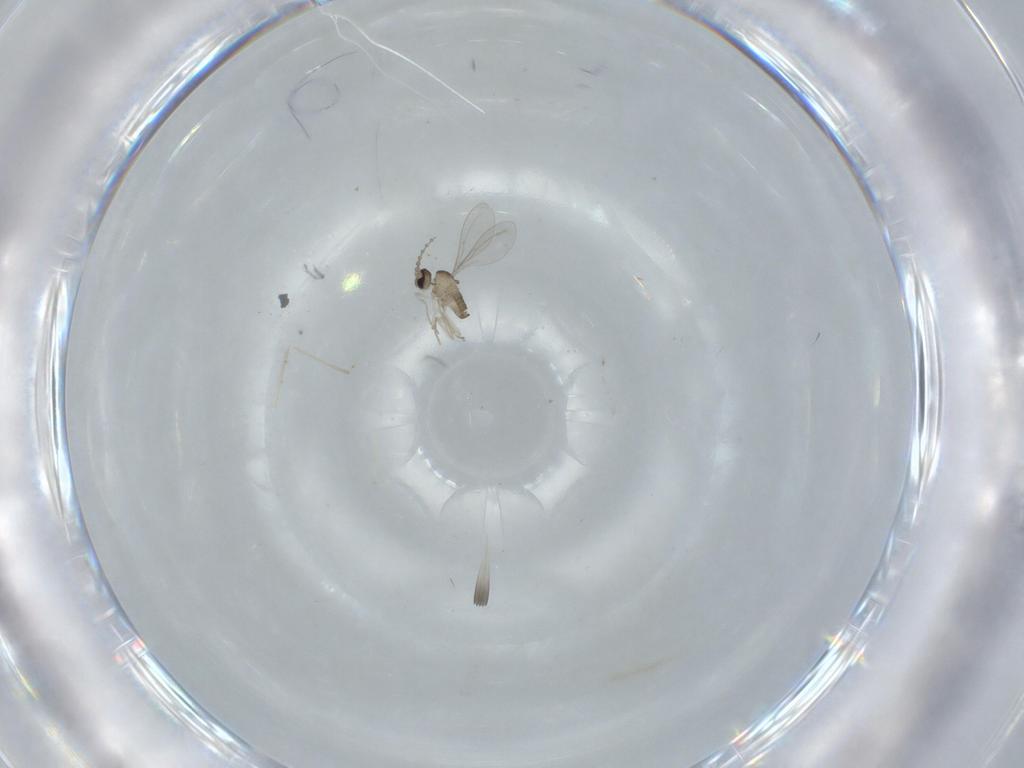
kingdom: Animalia
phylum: Arthropoda
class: Insecta
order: Diptera
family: Cecidomyiidae
